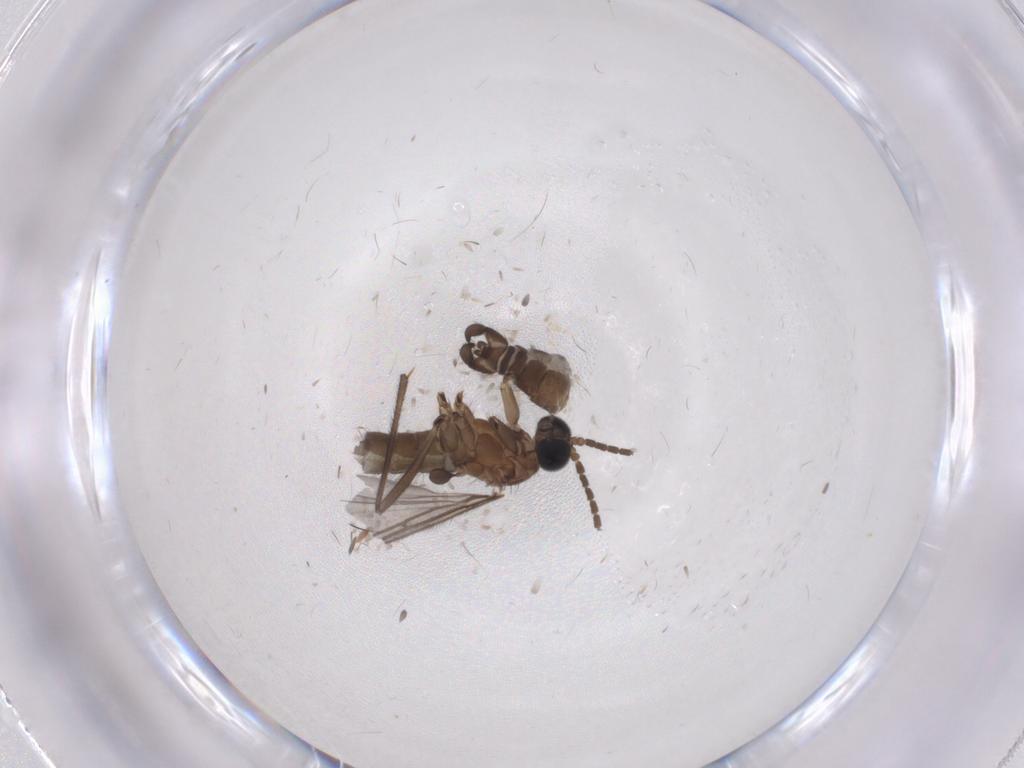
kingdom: Animalia
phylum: Arthropoda
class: Insecta
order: Diptera
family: Sciaridae
